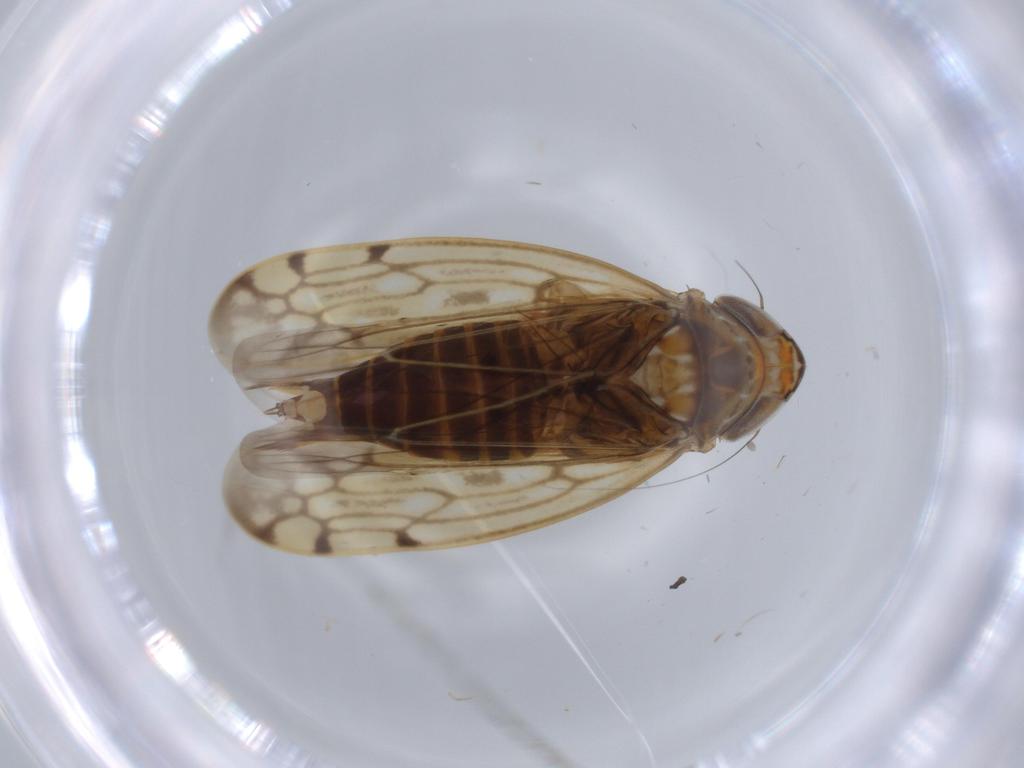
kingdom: Animalia
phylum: Arthropoda
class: Insecta
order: Hemiptera
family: Cicadellidae
